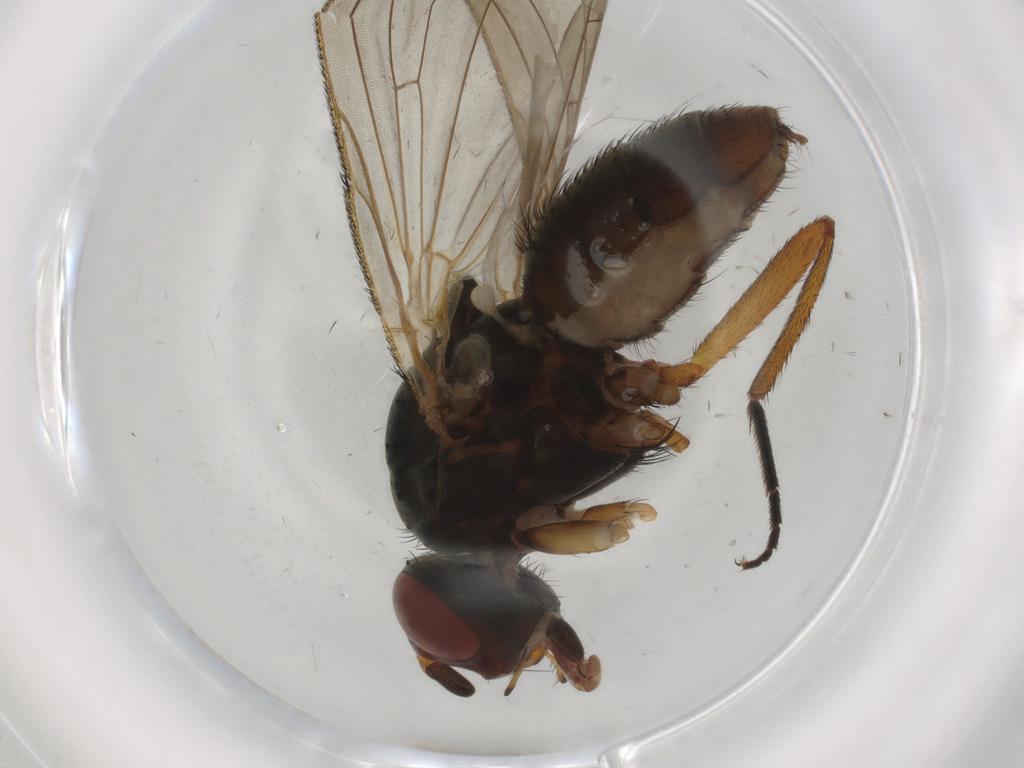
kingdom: Animalia
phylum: Arthropoda
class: Insecta
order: Diptera
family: Anthomyiidae
